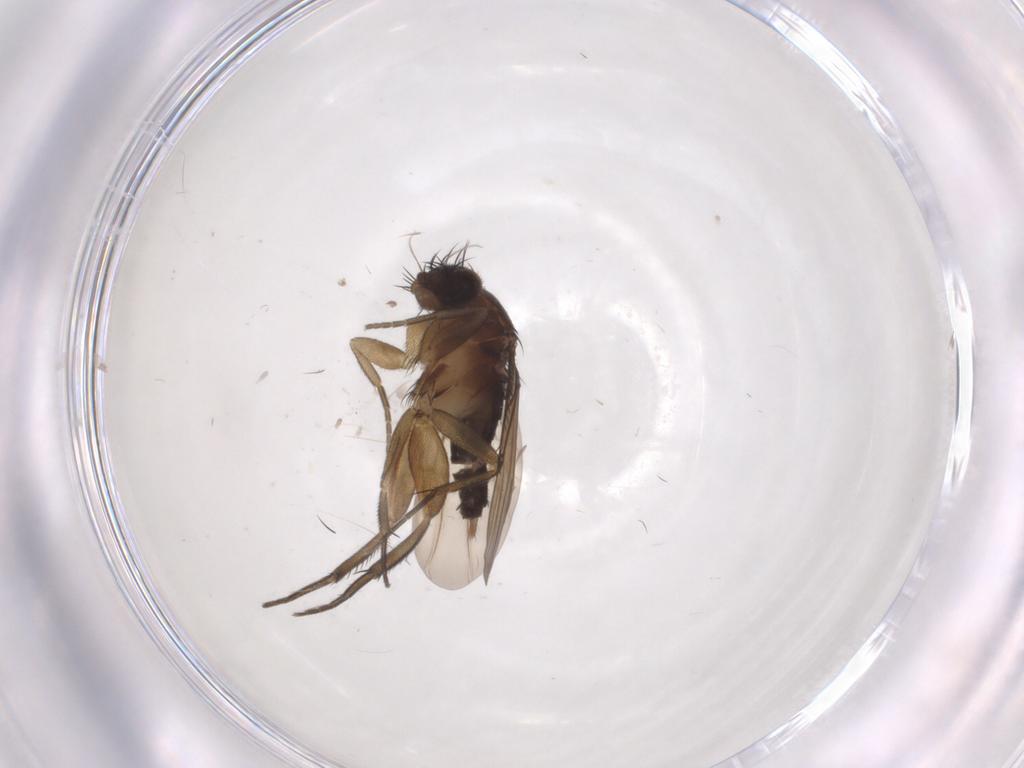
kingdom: Animalia
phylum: Arthropoda
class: Insecta
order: Diptera
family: Phoridae
